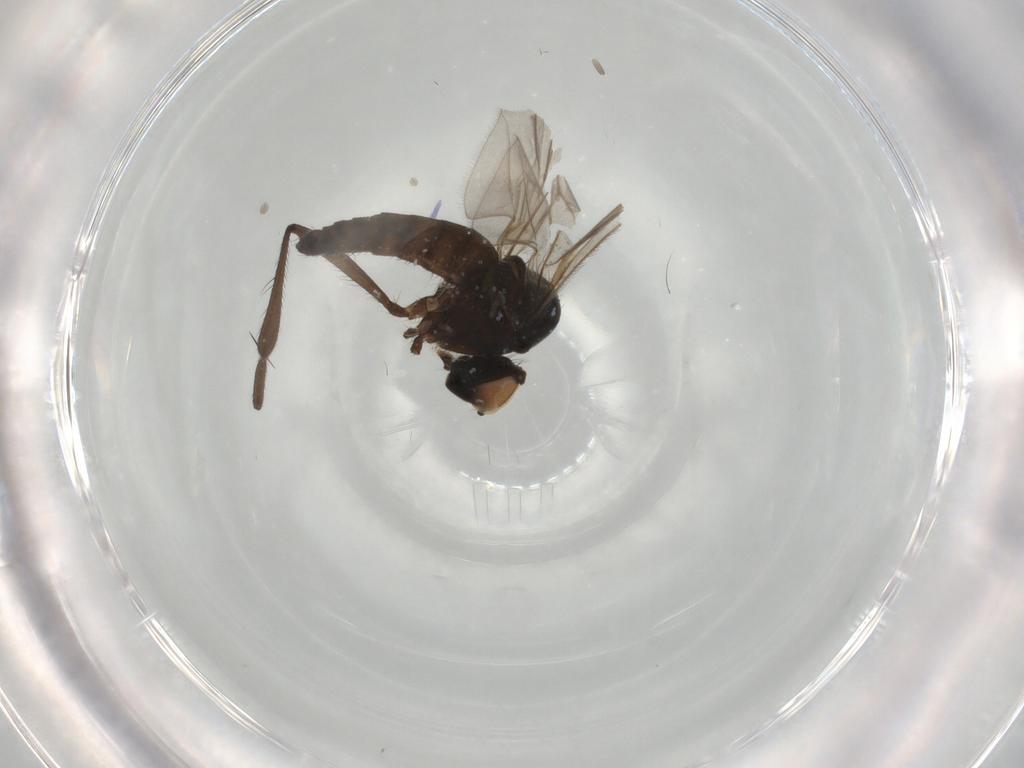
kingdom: Animalia
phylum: Arthropoda
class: Insecta
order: Diptera
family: Hybotidae
